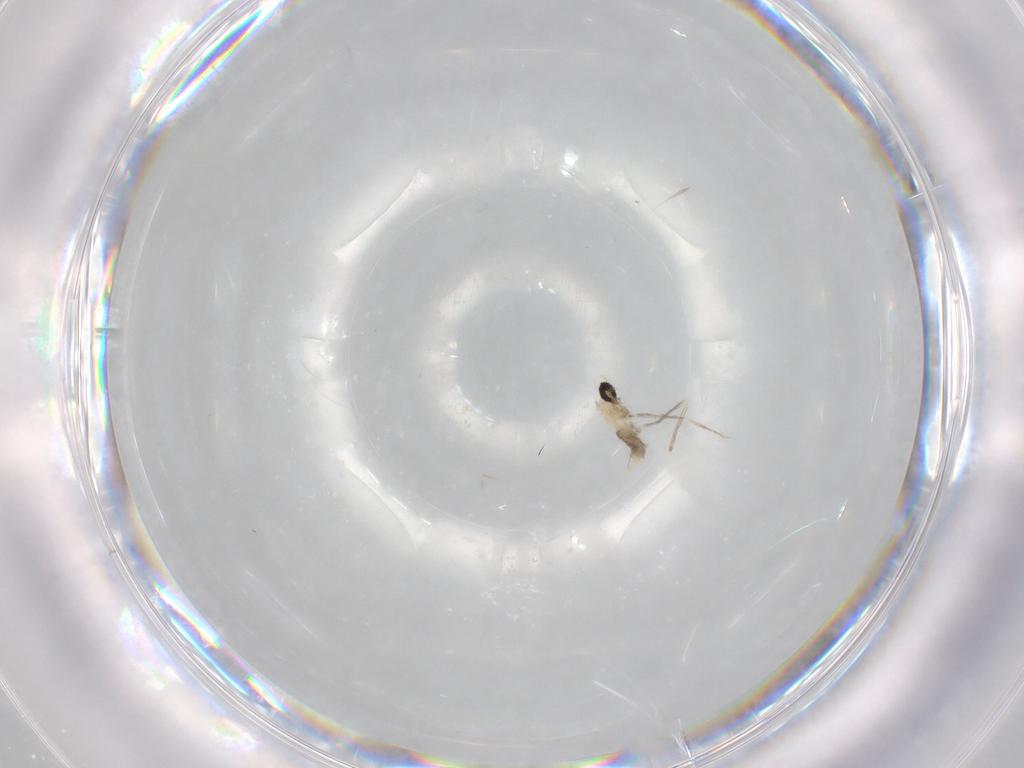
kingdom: Animalia
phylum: Arthropoda
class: Insecta
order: Diptera
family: Cecidomyiidae
